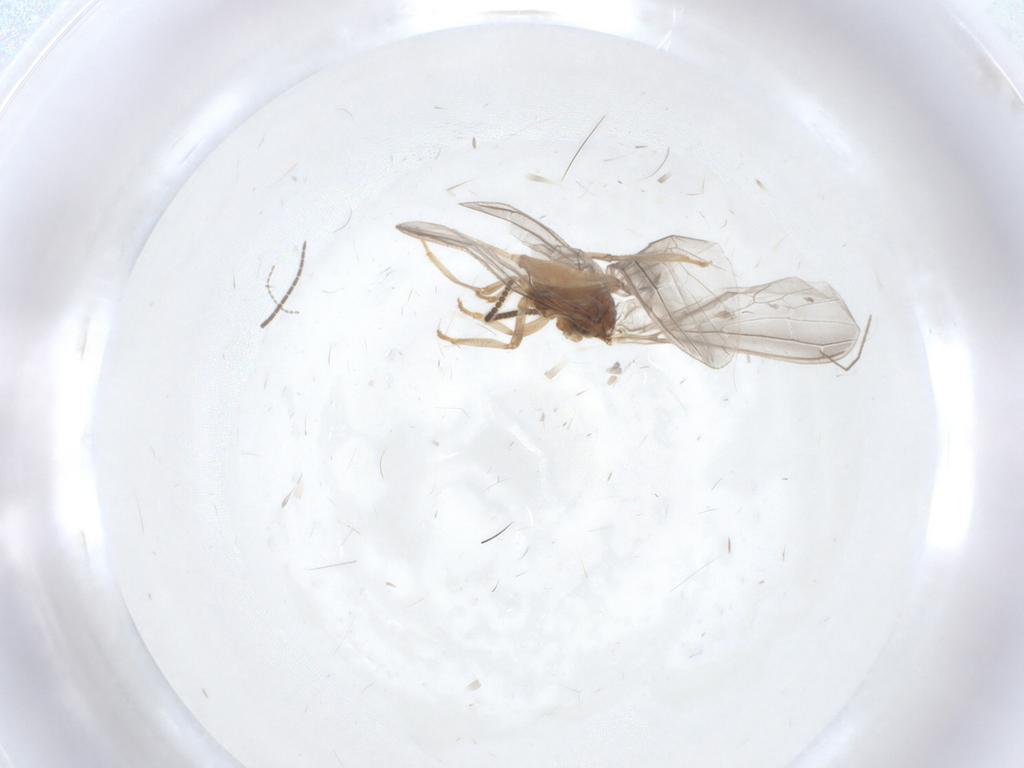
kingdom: Animalia
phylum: Arthropoda
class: Insecta
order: Neuroptera
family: Coniopterygidae
